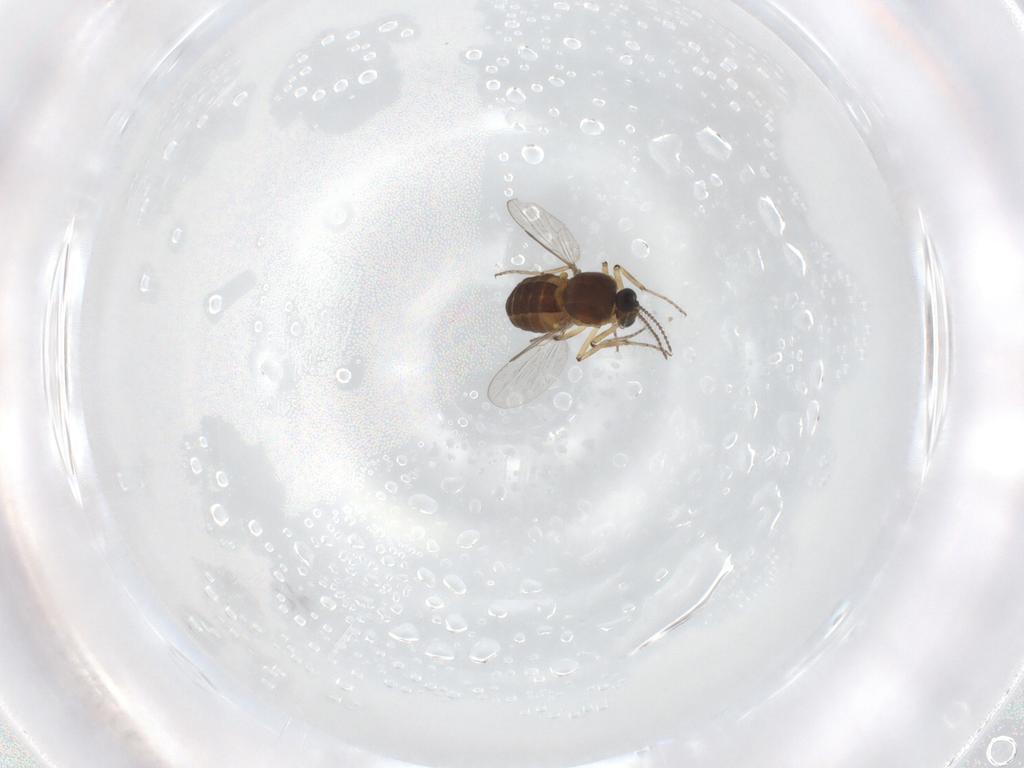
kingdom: Animalia
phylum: Arthropoda
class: Insecta
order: Diptera
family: Ceratopogonidae
